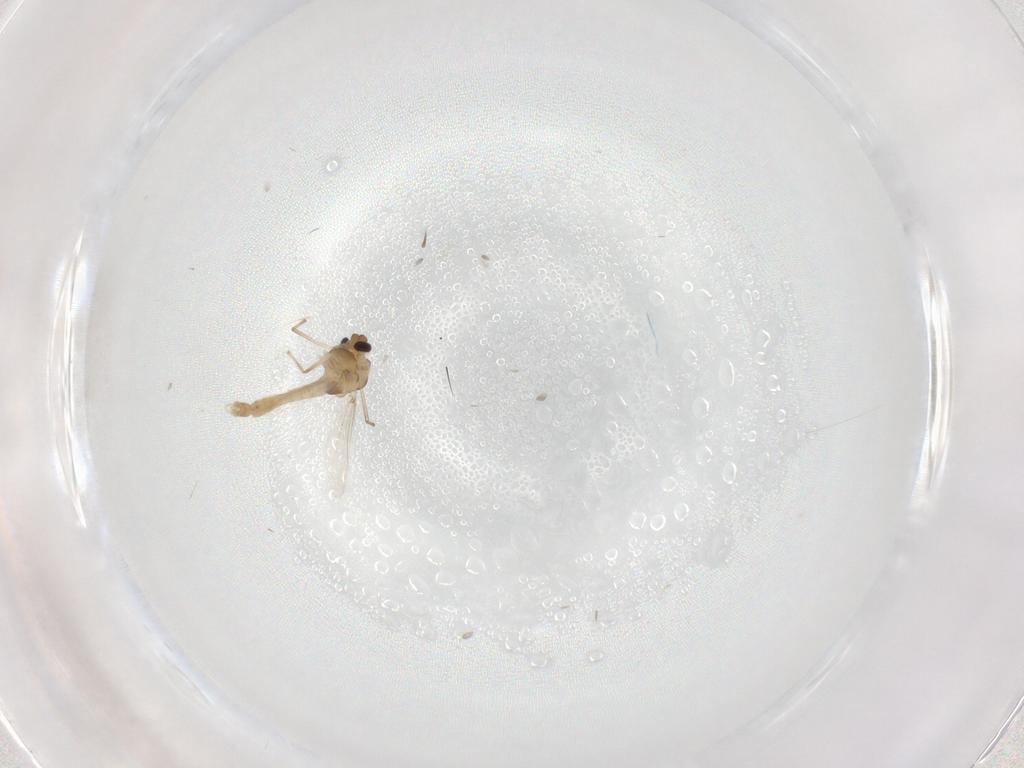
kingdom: Animalia
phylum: Arthropoda
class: Insecta
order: Diptera
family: Chironomidae
